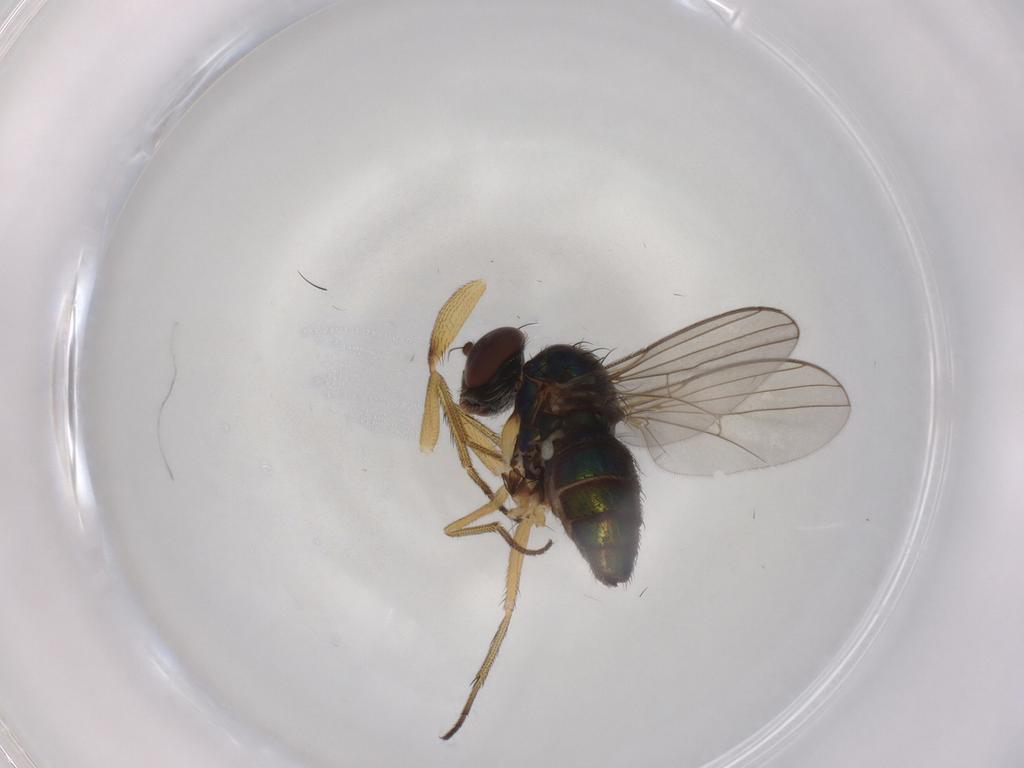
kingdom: Animalia
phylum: Arthropoda
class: Insecta
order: Diptera
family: Dolichopodidae
